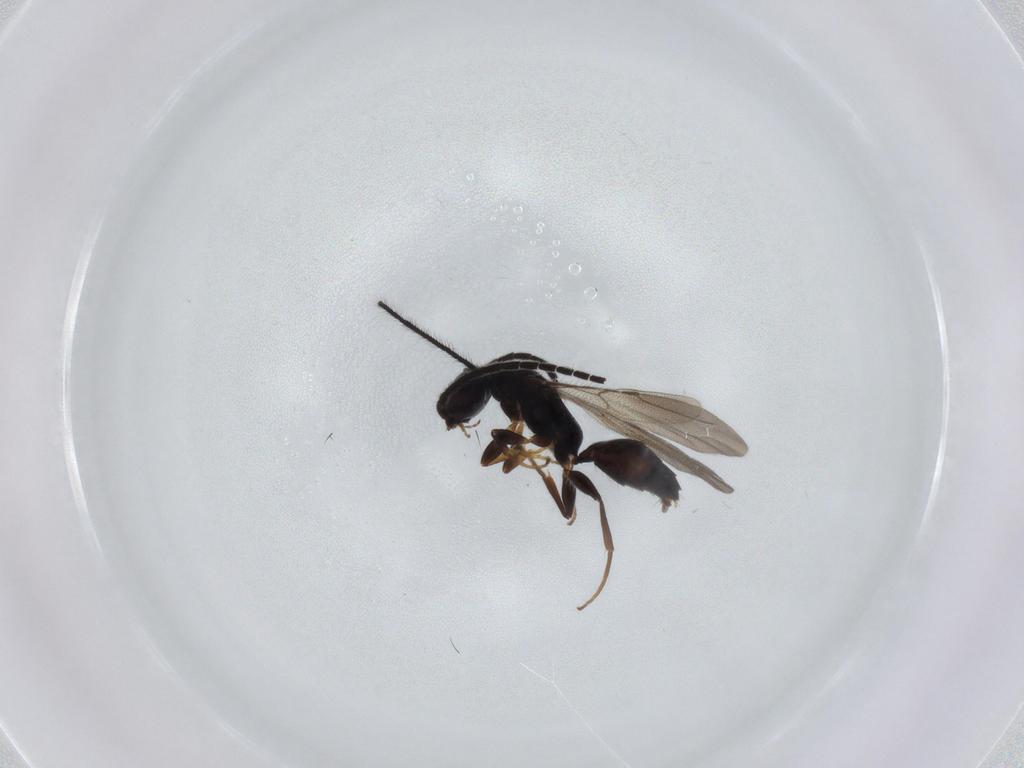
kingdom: Animalia
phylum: Arthropoda
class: Insecta
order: Hymenoptera
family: Bethylidae
